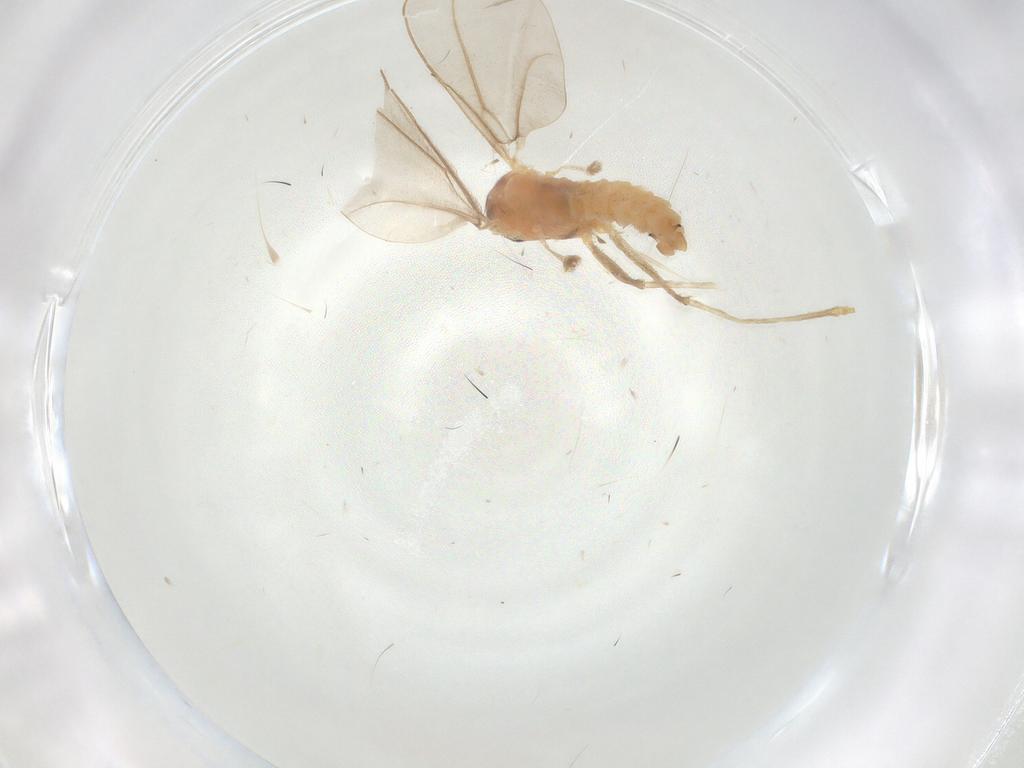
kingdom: Animalia
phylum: Arthropoda
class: Insecta
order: Diptera
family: Cecidomyiidae
